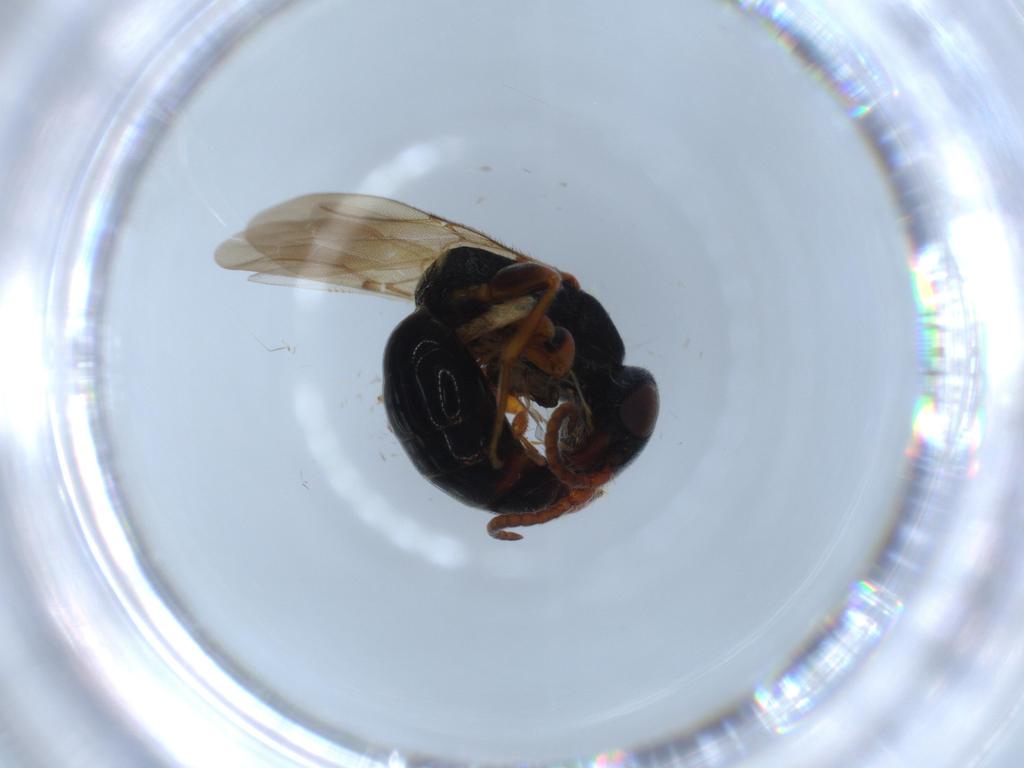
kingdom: Animalia
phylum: Arthropoda
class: Insecta
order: Hymenoptera
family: Bethylidae
